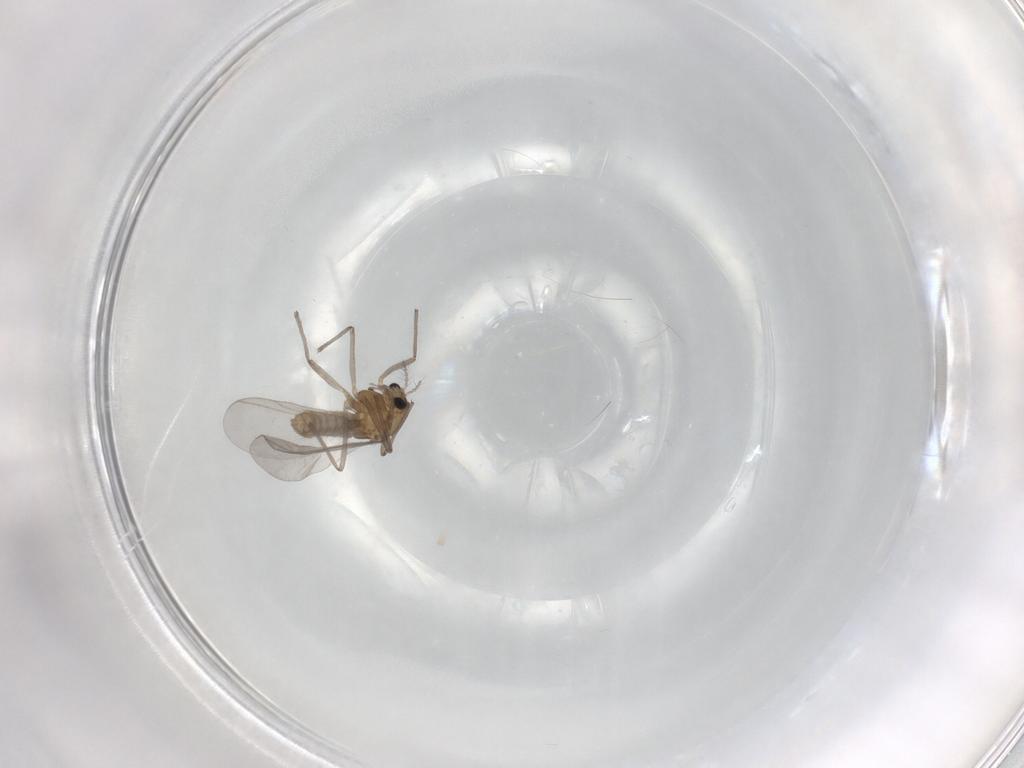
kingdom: Animalia
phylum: Arthropoda
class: Insecta
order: Diptera
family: Chironomidae
